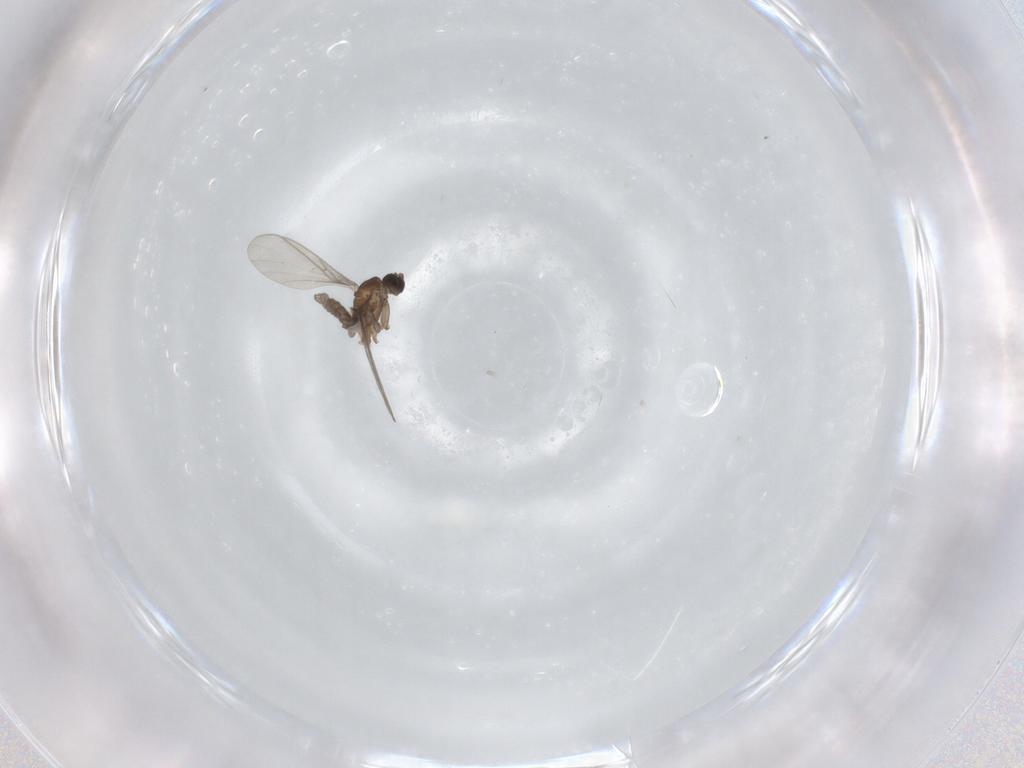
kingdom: Animalia
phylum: Arthropoda
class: Insecta
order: Diptera
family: Sciaridae
